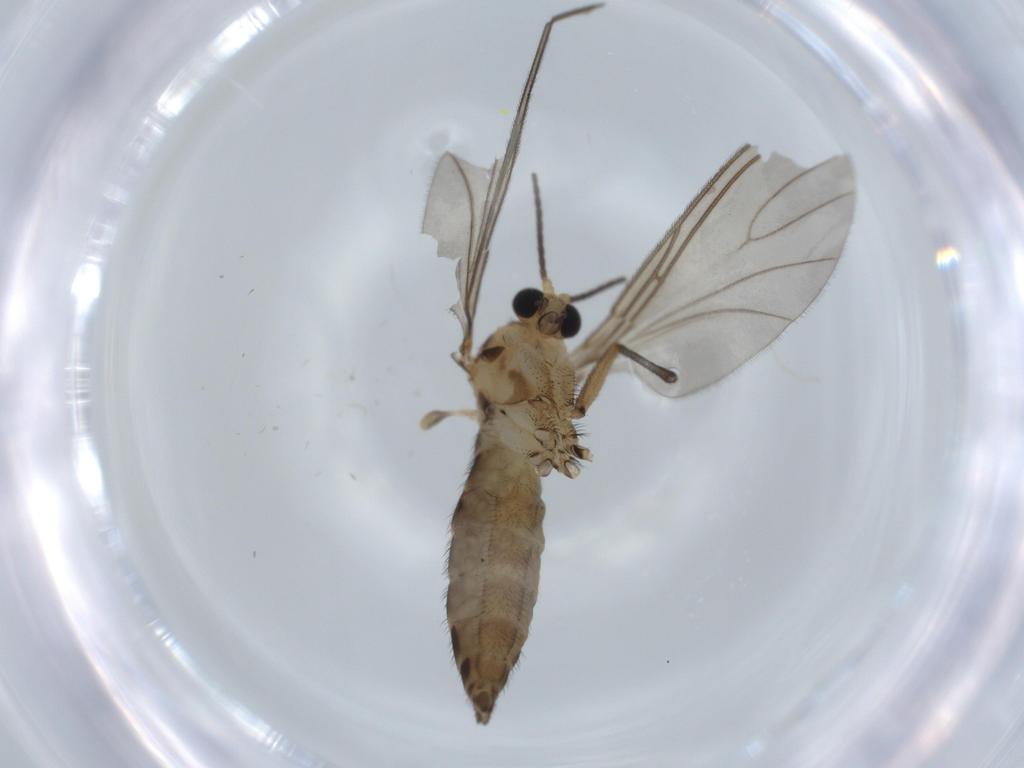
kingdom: Animalia
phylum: Arthropoda
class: Insecta
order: Diptera
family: Sciaridae
